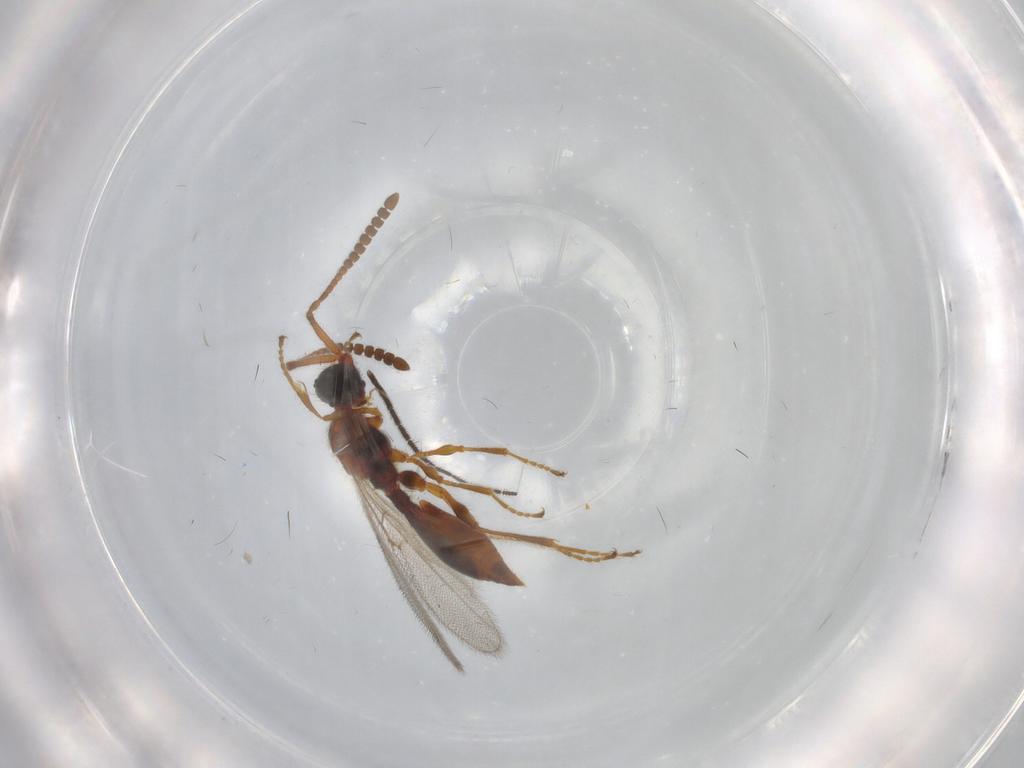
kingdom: Animalia
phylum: Arthropoda
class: Insecta
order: Hymenoptera
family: Diapriidae
